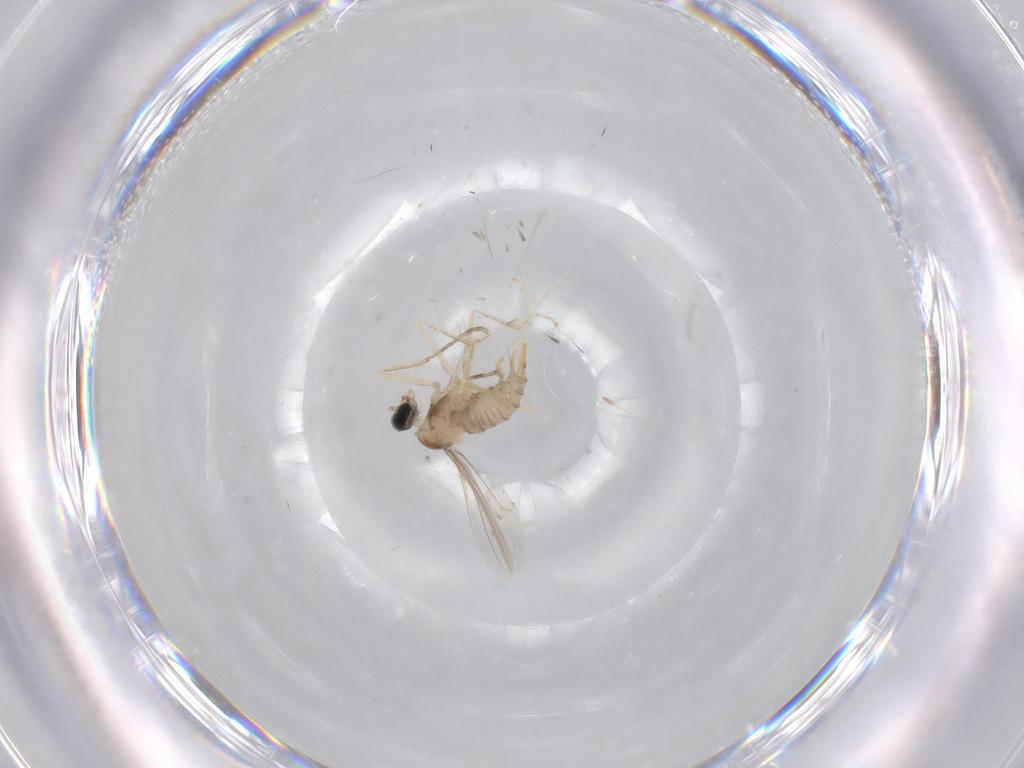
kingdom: Animalia
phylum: Arthropoda
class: Insecta
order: Diptera
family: Cecidomyiidae
